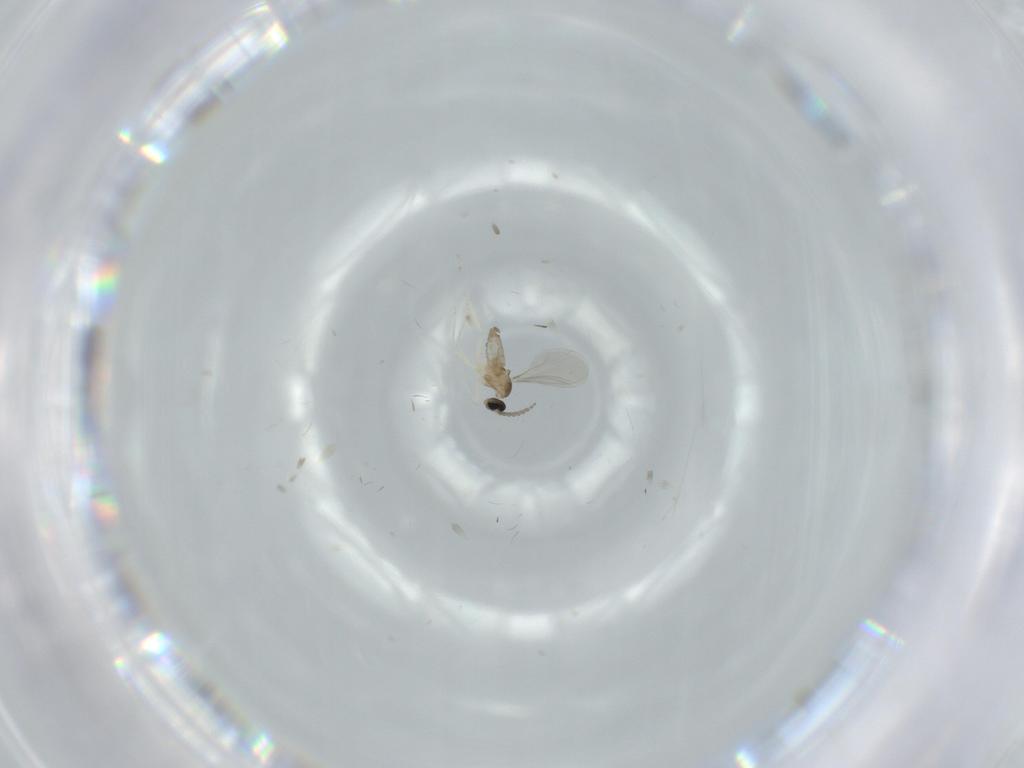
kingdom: Animalia
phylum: Arthropoda
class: Insecta
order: Diptera
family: Cecidomyiidae
